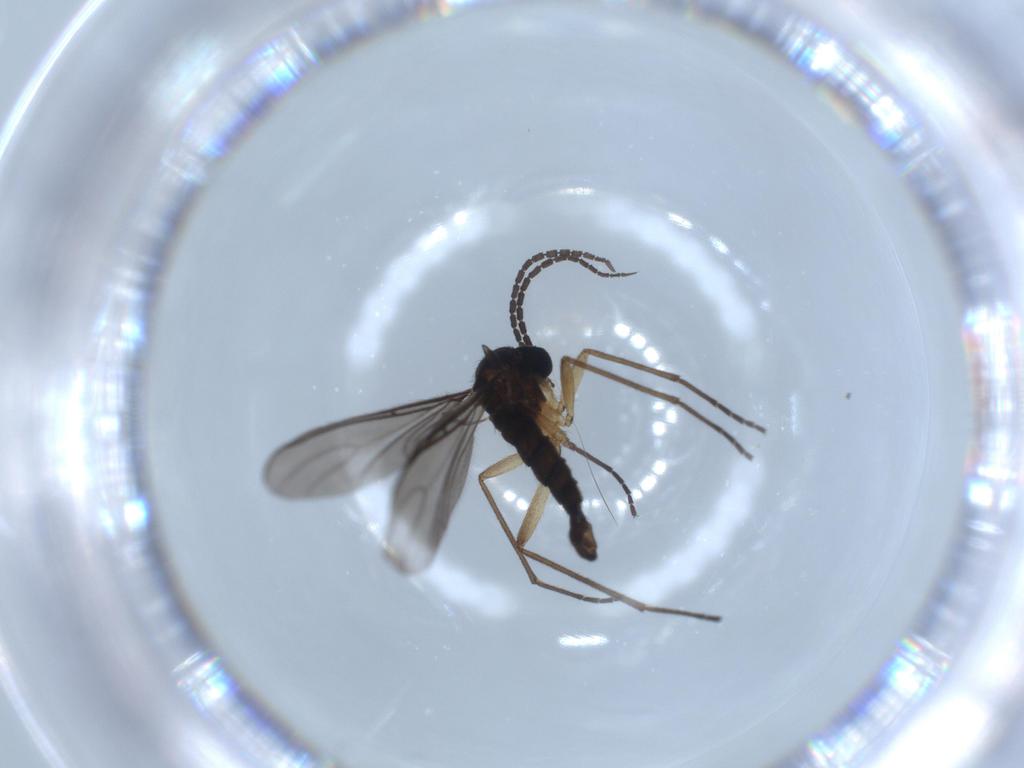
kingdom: Animalia
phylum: Arthropoda
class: Insecta
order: Diptera
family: Sciaridae
